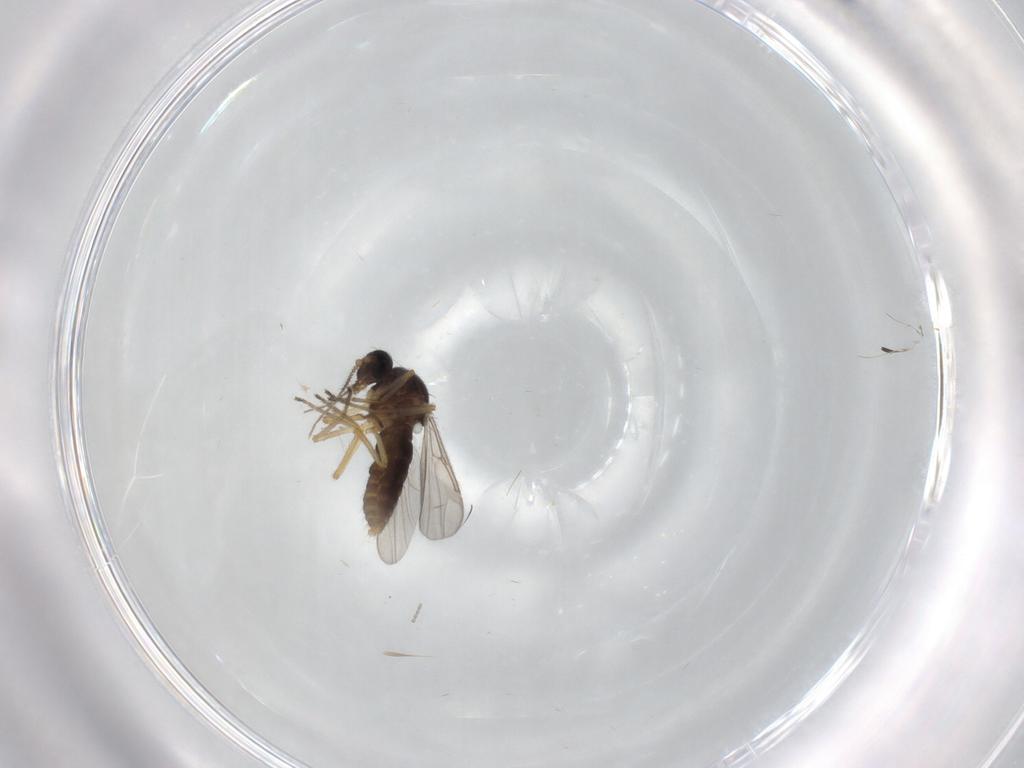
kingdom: Animalia
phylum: Arthropoda
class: Insecta
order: Diptera
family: Ceratopogonidae
